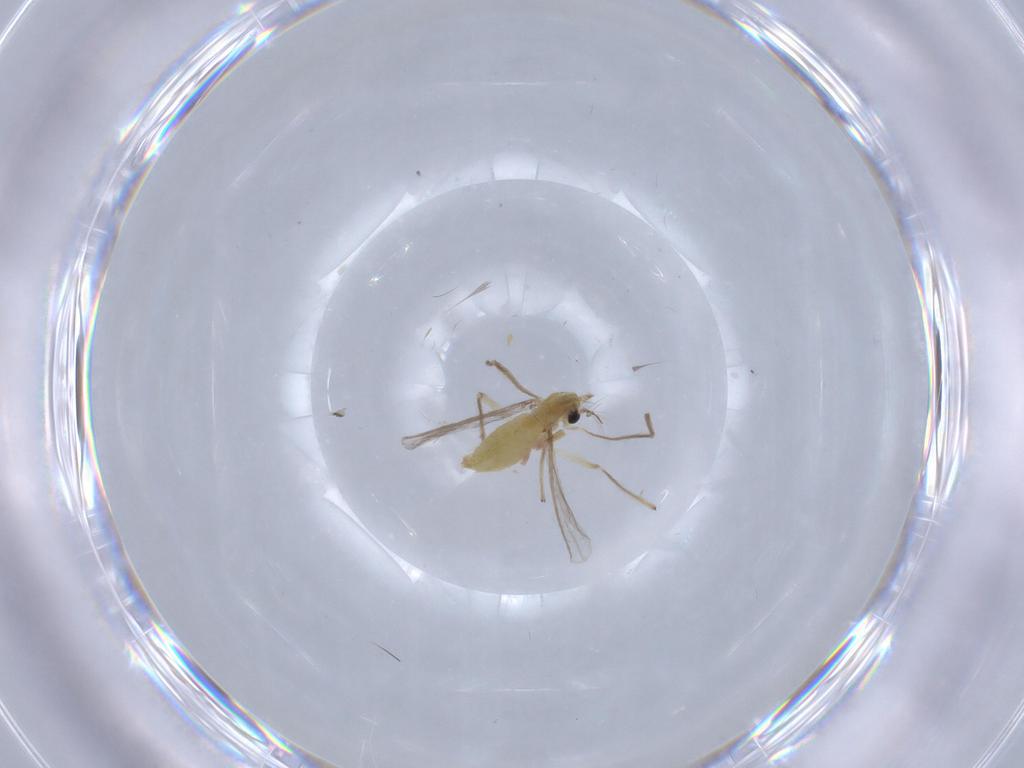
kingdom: Animalia
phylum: Arthropoda
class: Insecta
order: Diptera
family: Chironomidae
